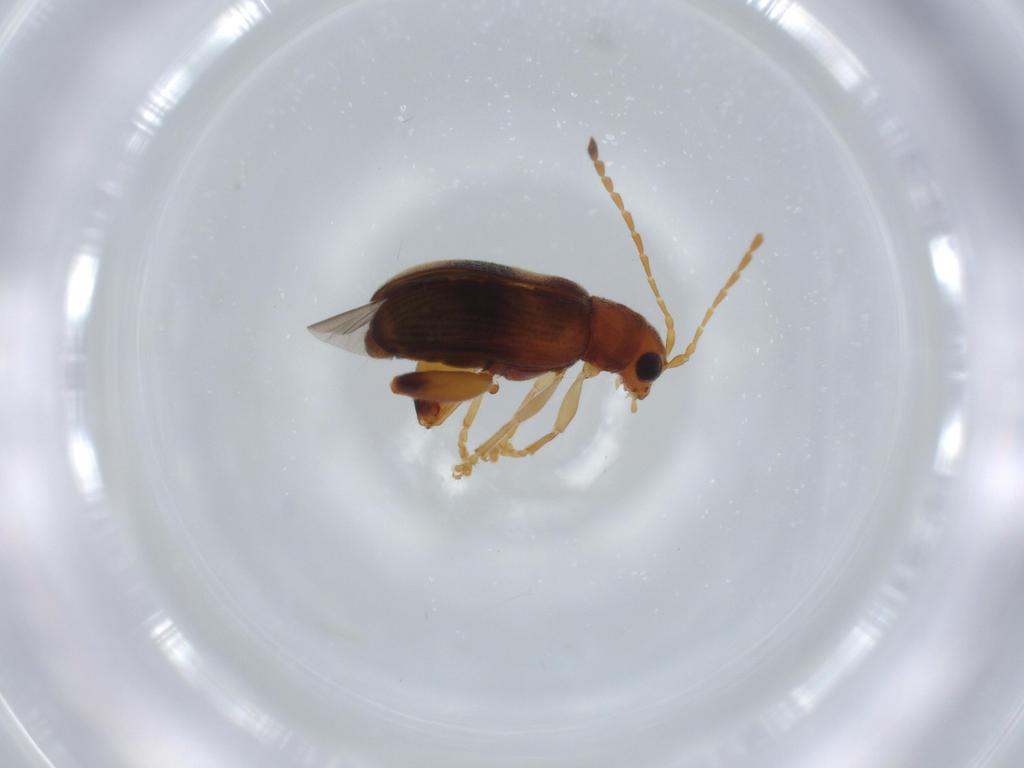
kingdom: Animalia
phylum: Arthropoda
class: Insecta
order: Coleoptera
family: Chrysomelidae
